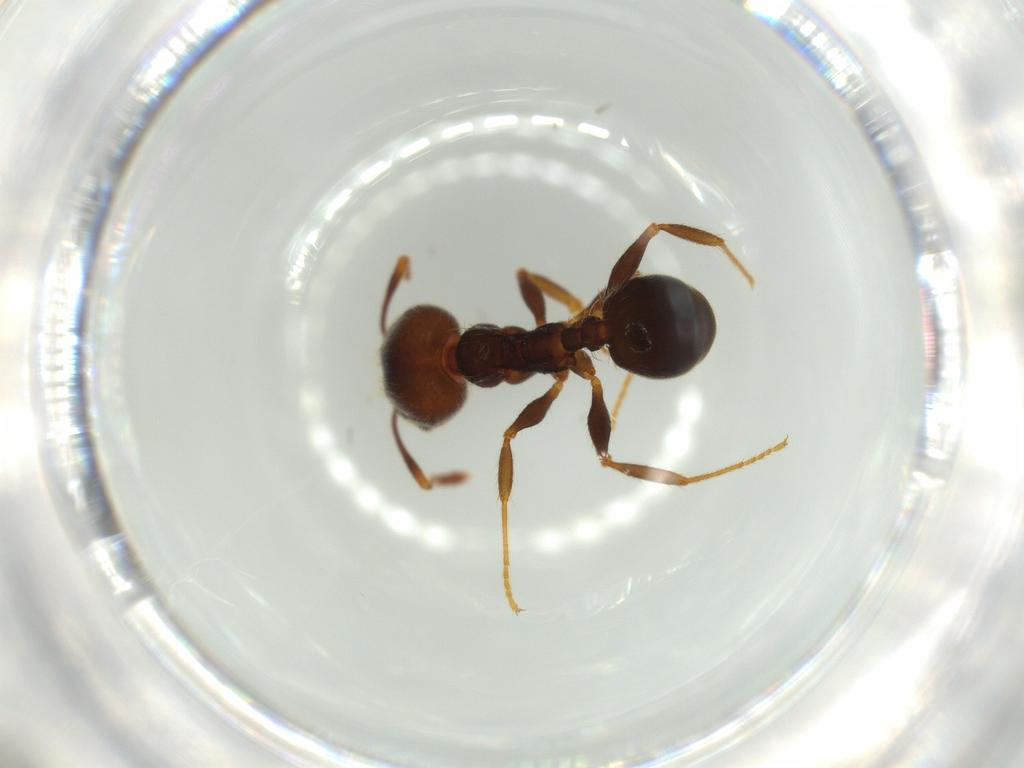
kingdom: Animalia
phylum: Arthropoda
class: Insecta
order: Hymenoptera
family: Formicidae
